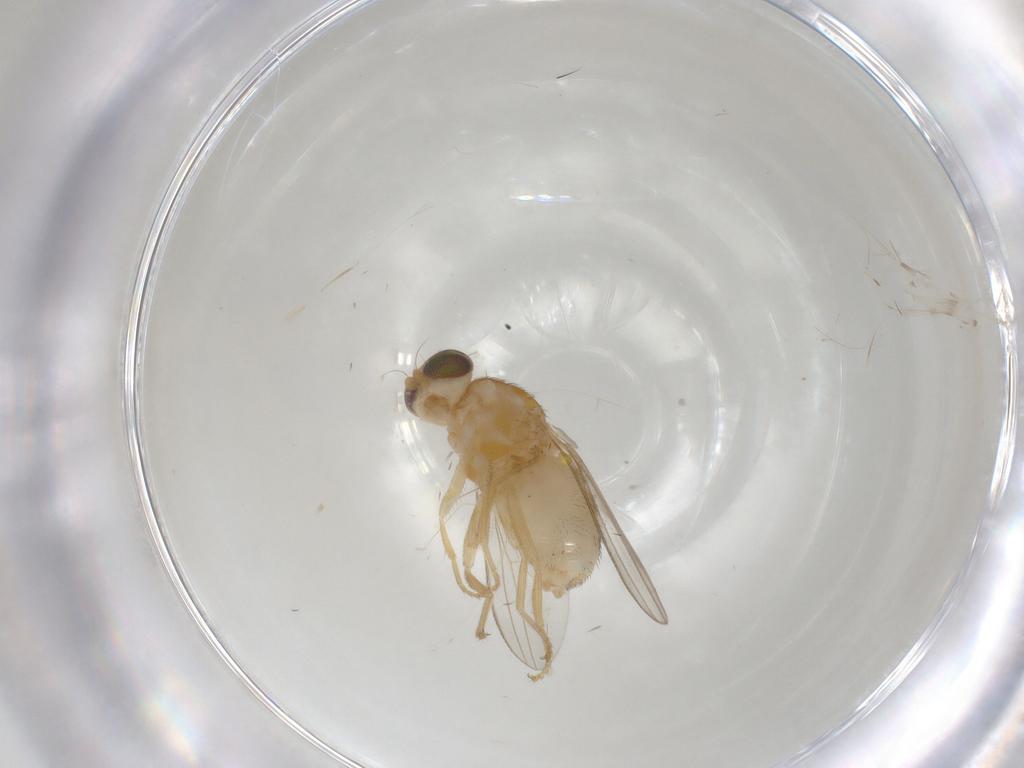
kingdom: Animalia
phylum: Arthropoda
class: Insecta
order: Diptera
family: Chyromyidae
